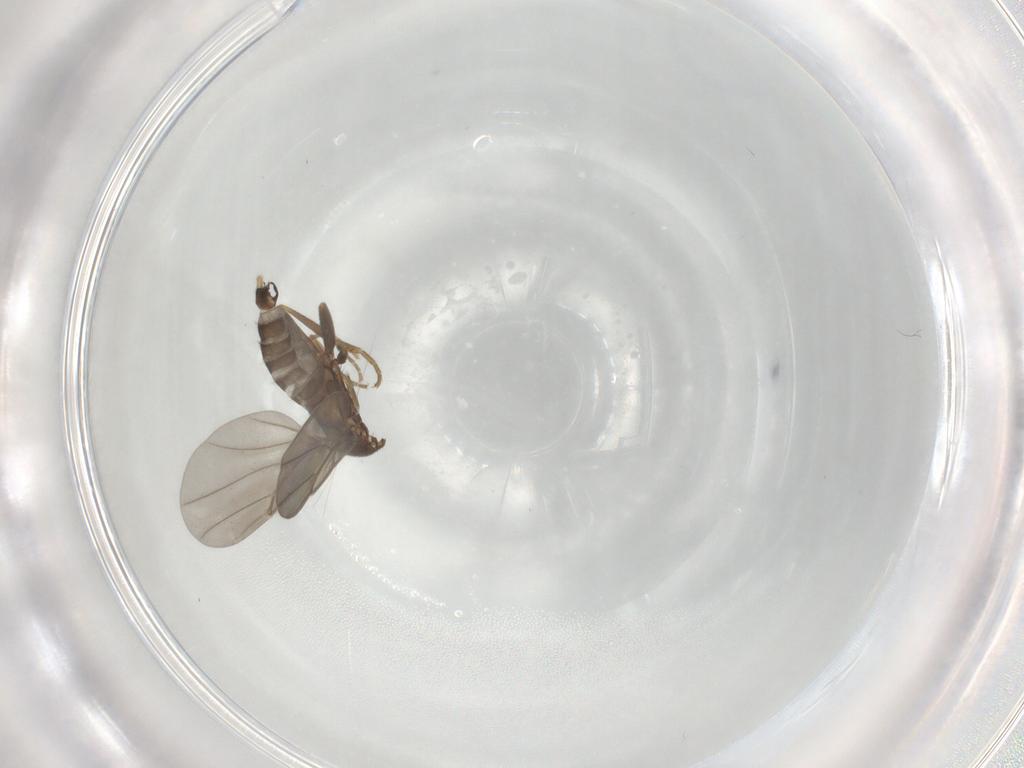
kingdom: Animalia
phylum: Arthropoda
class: Insecta
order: Diptera
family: Phoridae
